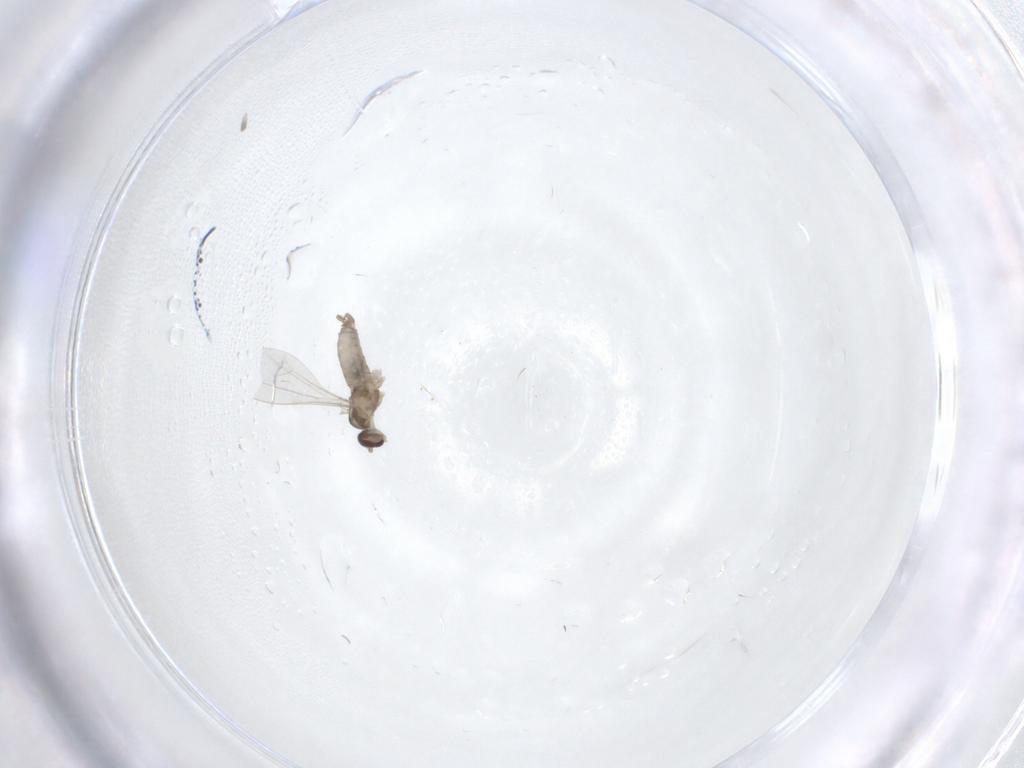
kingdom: Animalia
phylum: Arthropoda
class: Insecta
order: Diptera
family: Cecidomyiidae
